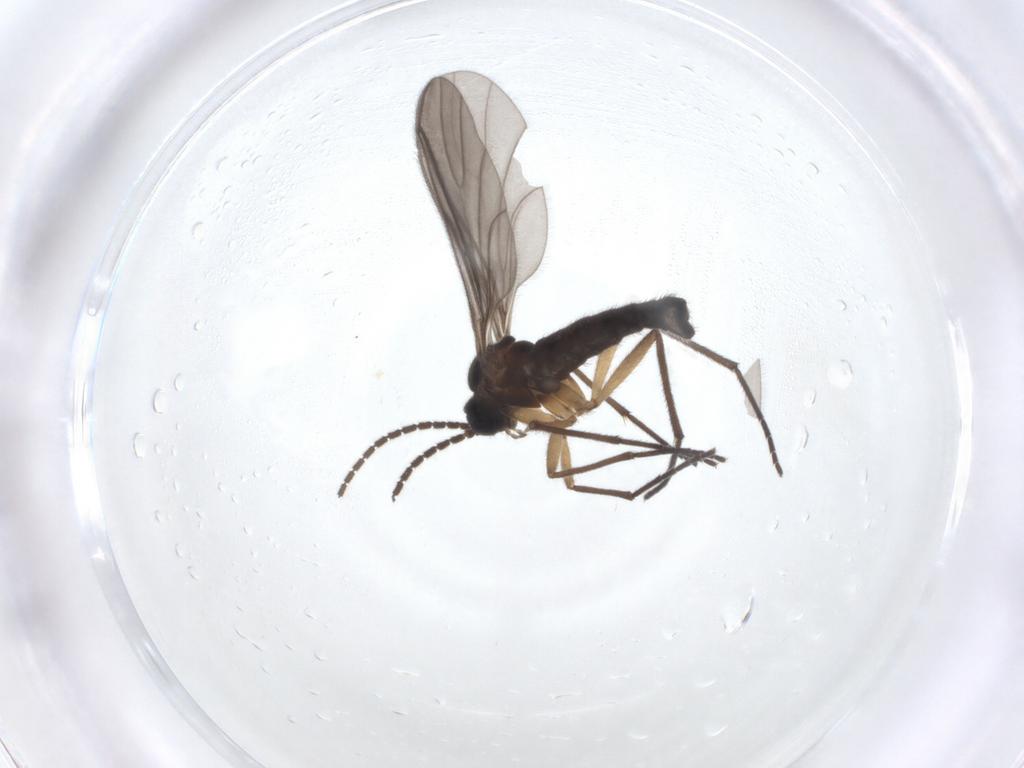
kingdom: Animalia
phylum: Arthropoda
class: Insecta
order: Diptera
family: Sciaridae
